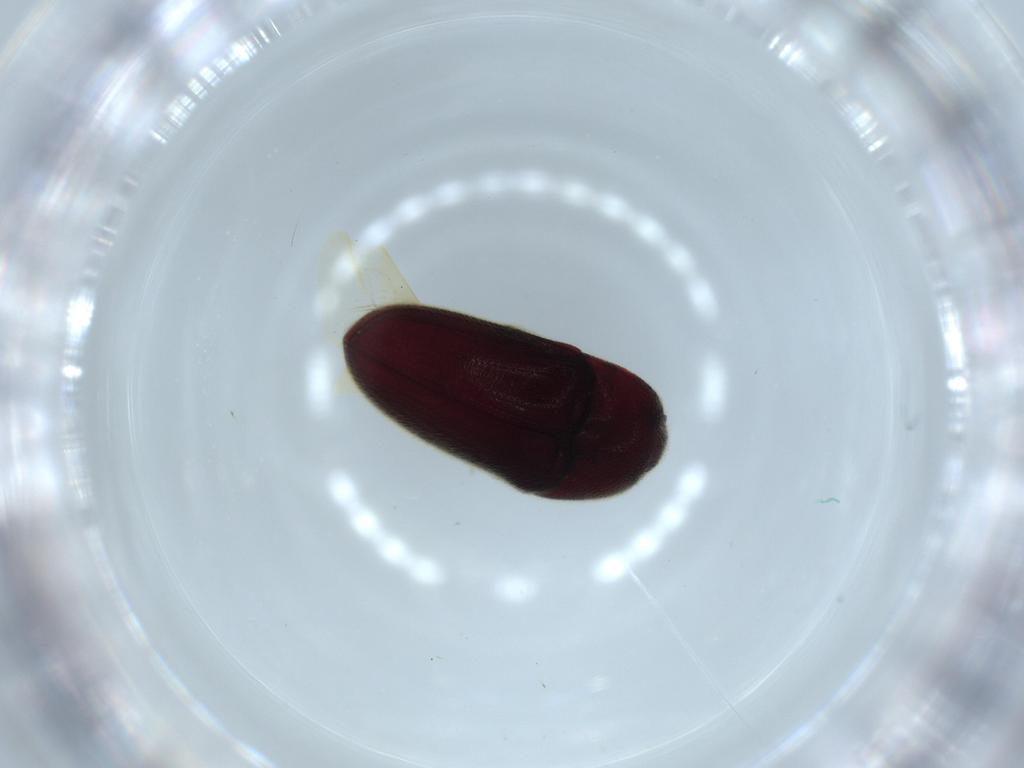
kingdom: Animalia
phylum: Arthropoda
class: Insecta
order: Coleoptera
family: Throscidae
